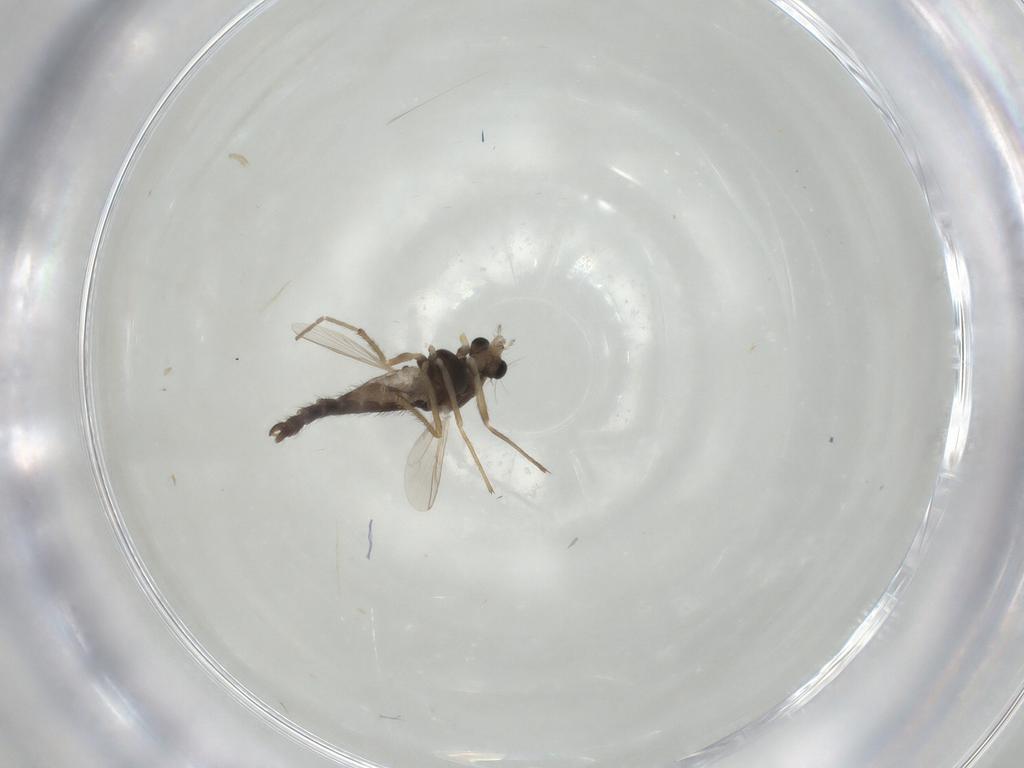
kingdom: Animalia
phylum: Arthropoda
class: Insecta
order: Diptera
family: Chironomidae
